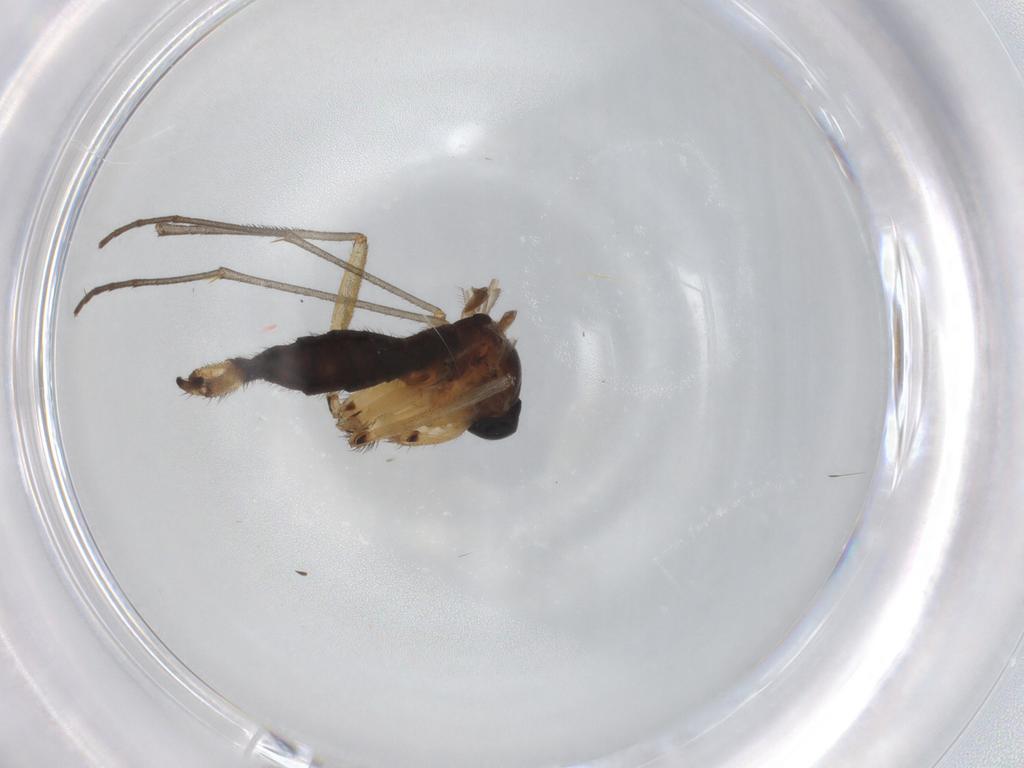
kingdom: Animalia
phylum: Arthropoda
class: Insecta
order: Diptera
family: Sciaridae
